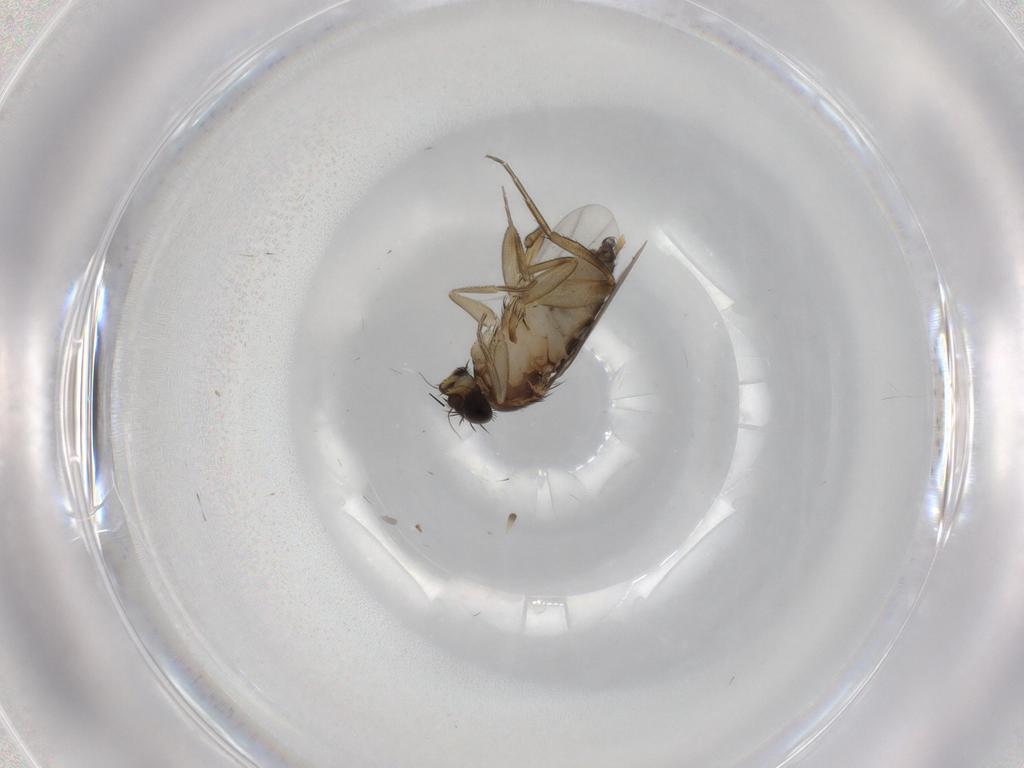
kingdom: Animalia
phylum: Arthropoda
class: Insecta
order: Diptera
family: Phoridae
